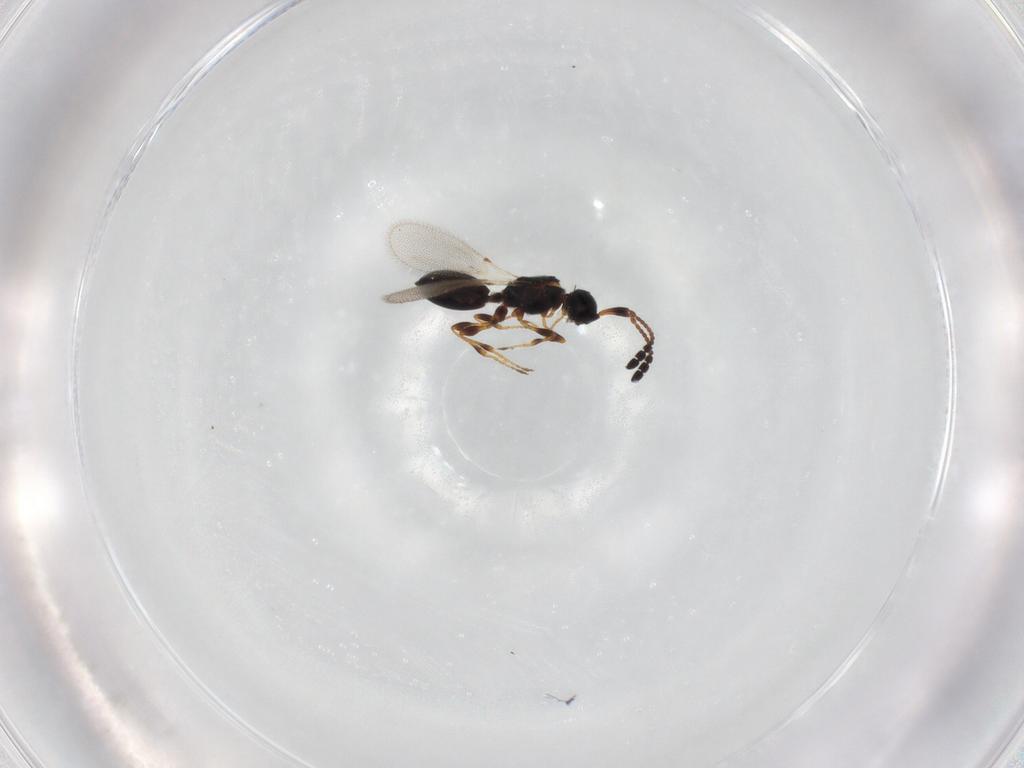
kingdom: Animalia
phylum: Arthropoda
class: Insecta
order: Hymenoptera
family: Diapriidae
